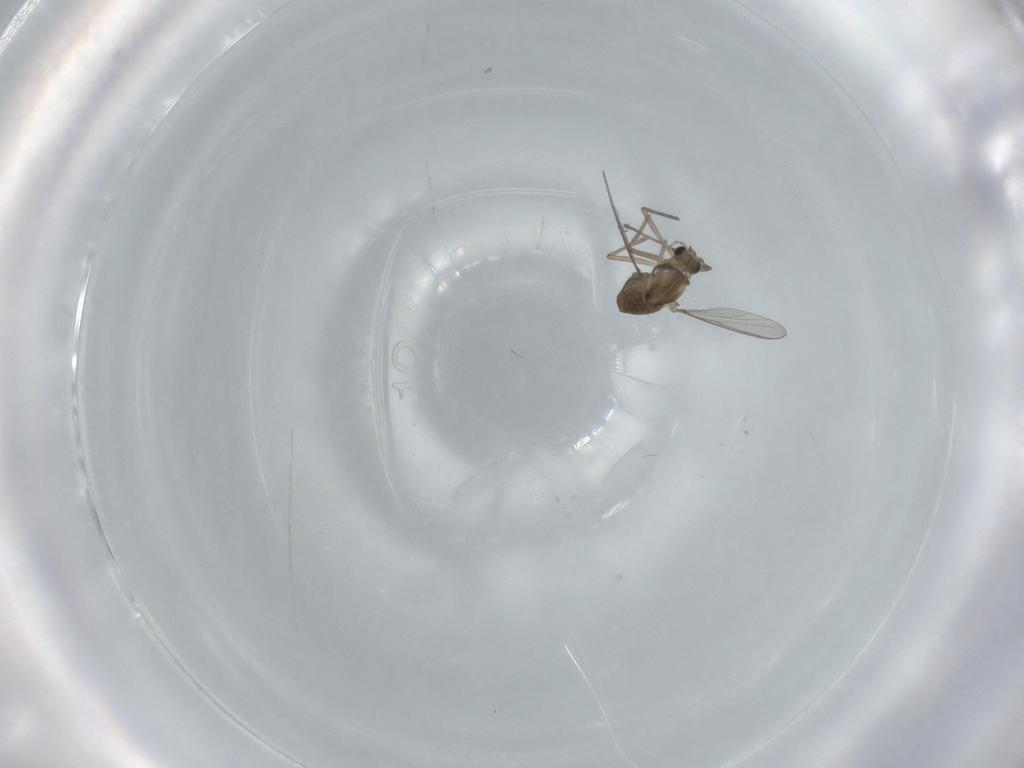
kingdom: Animalia
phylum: Arthropoda
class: Insecta
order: Diptera
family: Chironomidae
